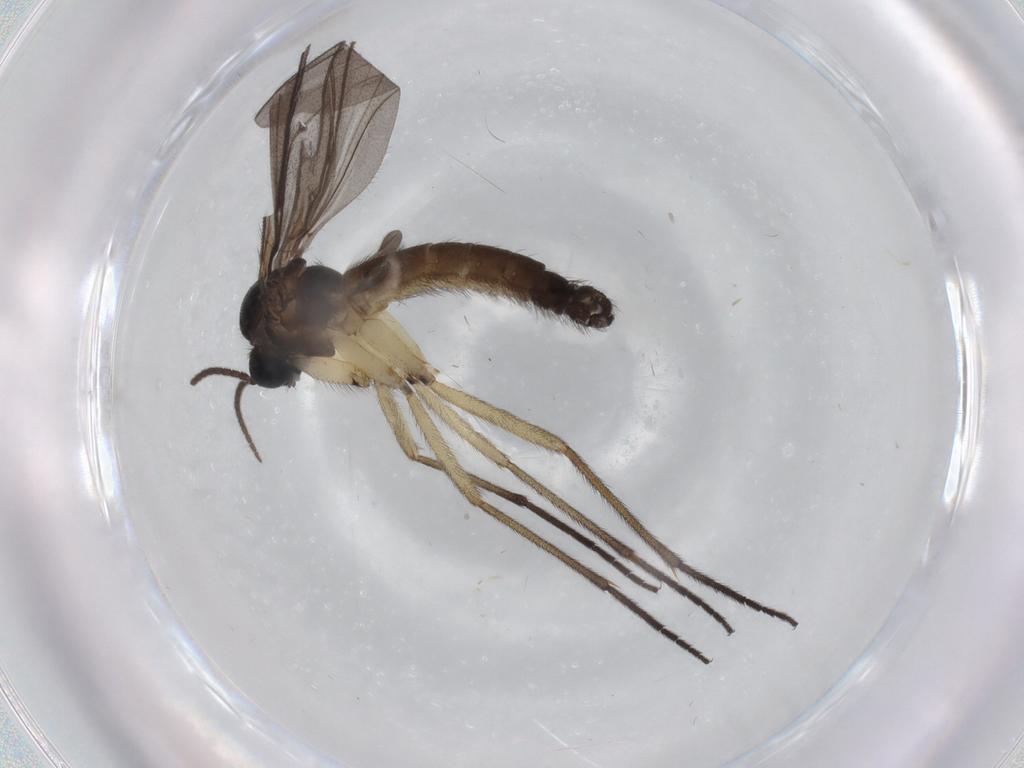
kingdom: Animalia
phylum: Arthropoda
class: Insecta
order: Diptera
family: Sciaridae
